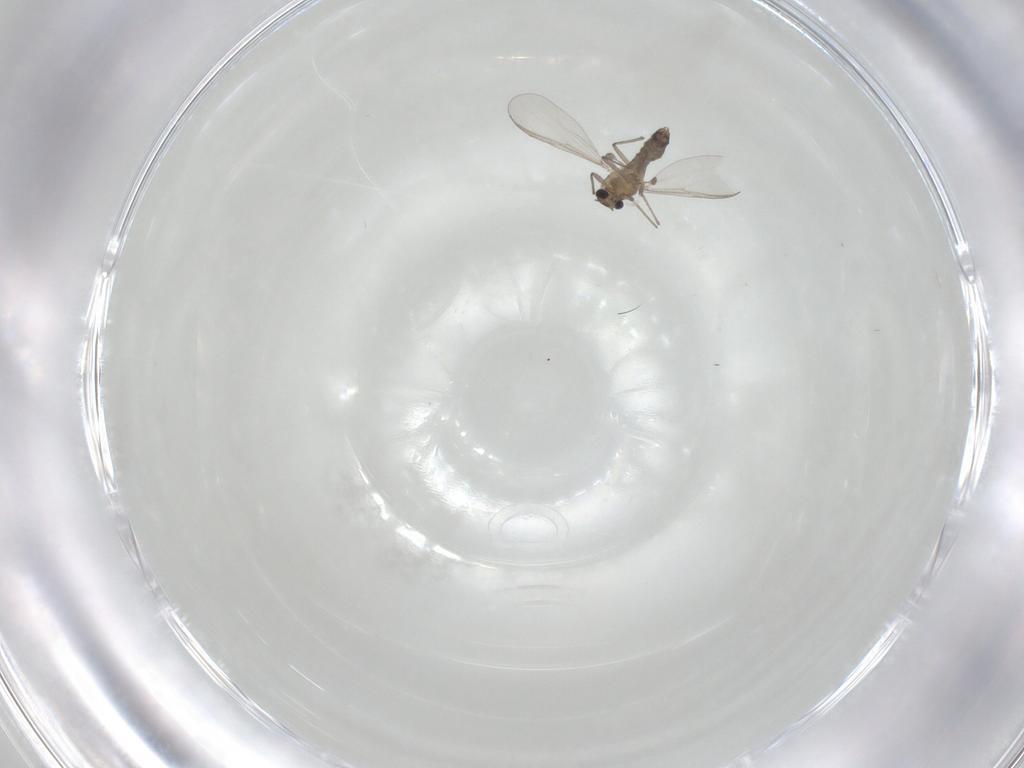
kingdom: Animalia
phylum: Arthropoda
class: Insecta
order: Diptera
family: Chironomidae
